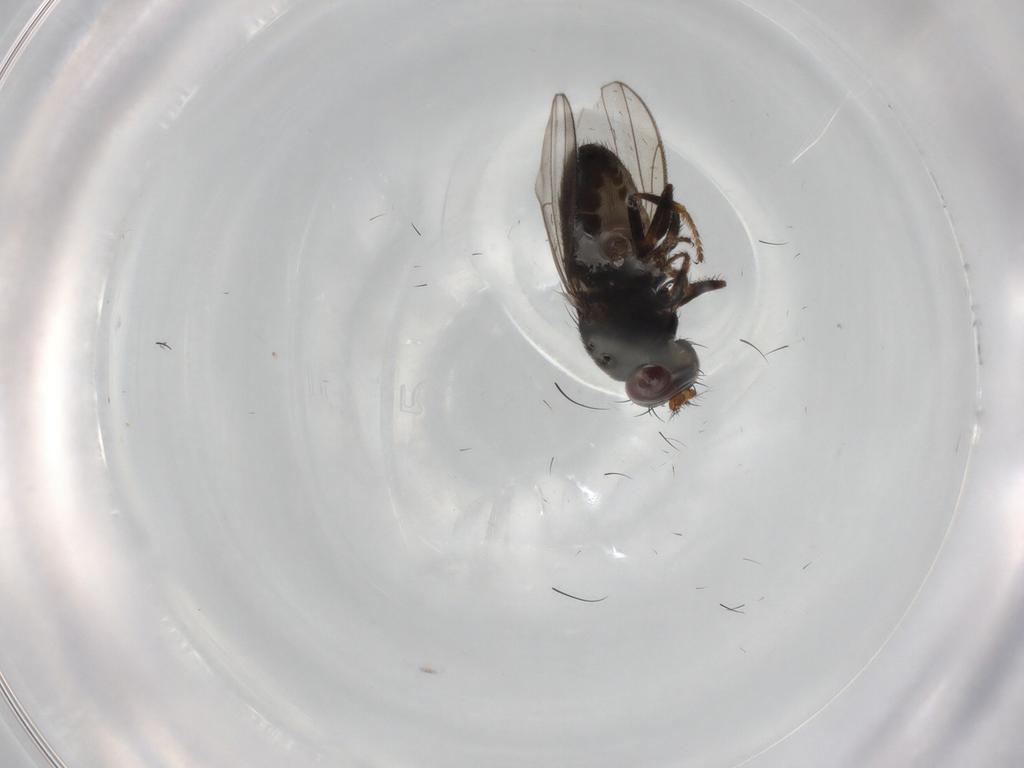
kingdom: Animalia
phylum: Arthropoda
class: Insecta
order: Diptera
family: Ephydridae
